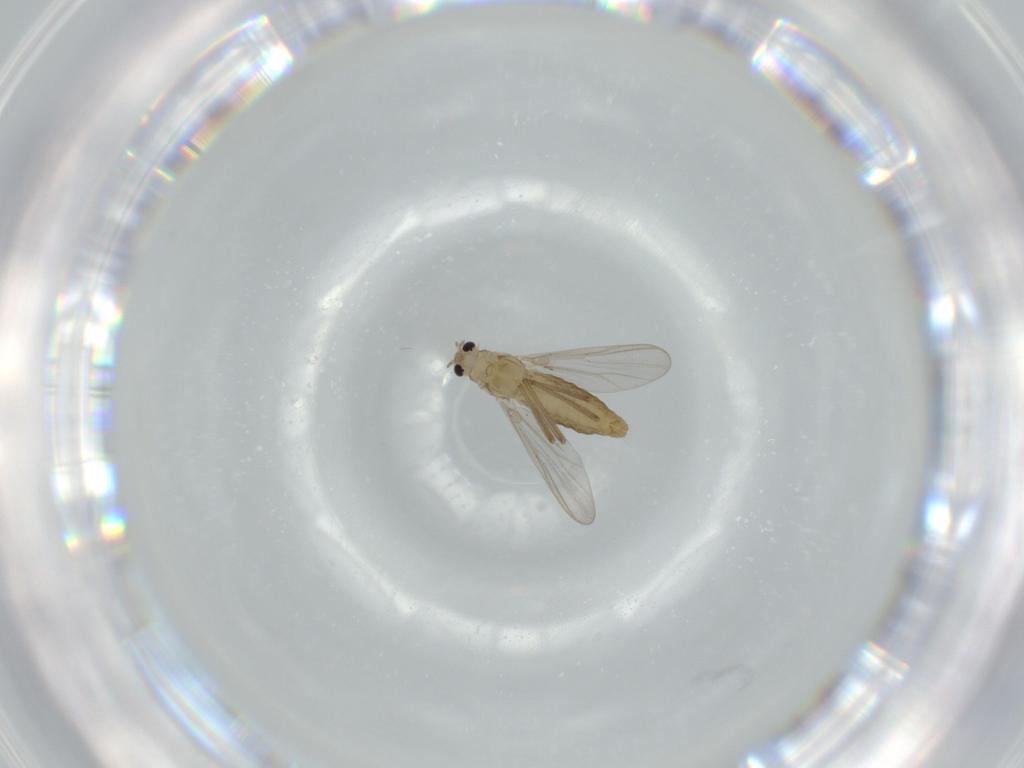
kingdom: Animalia
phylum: Arthropoda
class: Insecta
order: Diptera
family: Chironomidae
